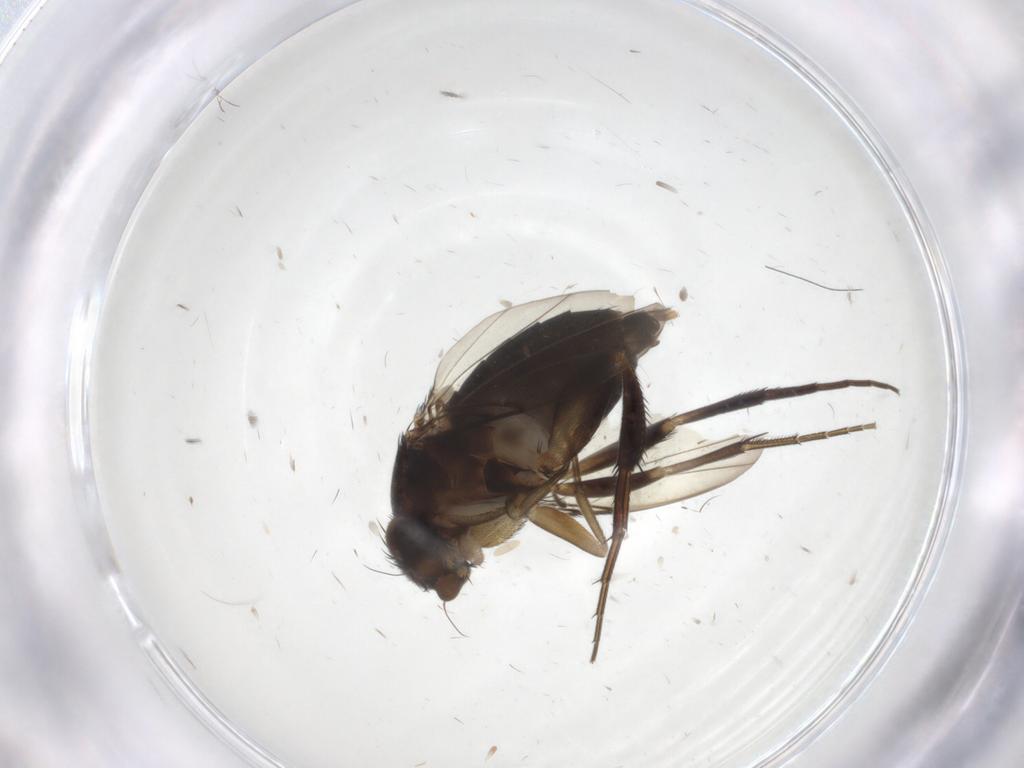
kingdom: Animalia
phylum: Arthropoda
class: Insecta
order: Diptera
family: Phoridae
